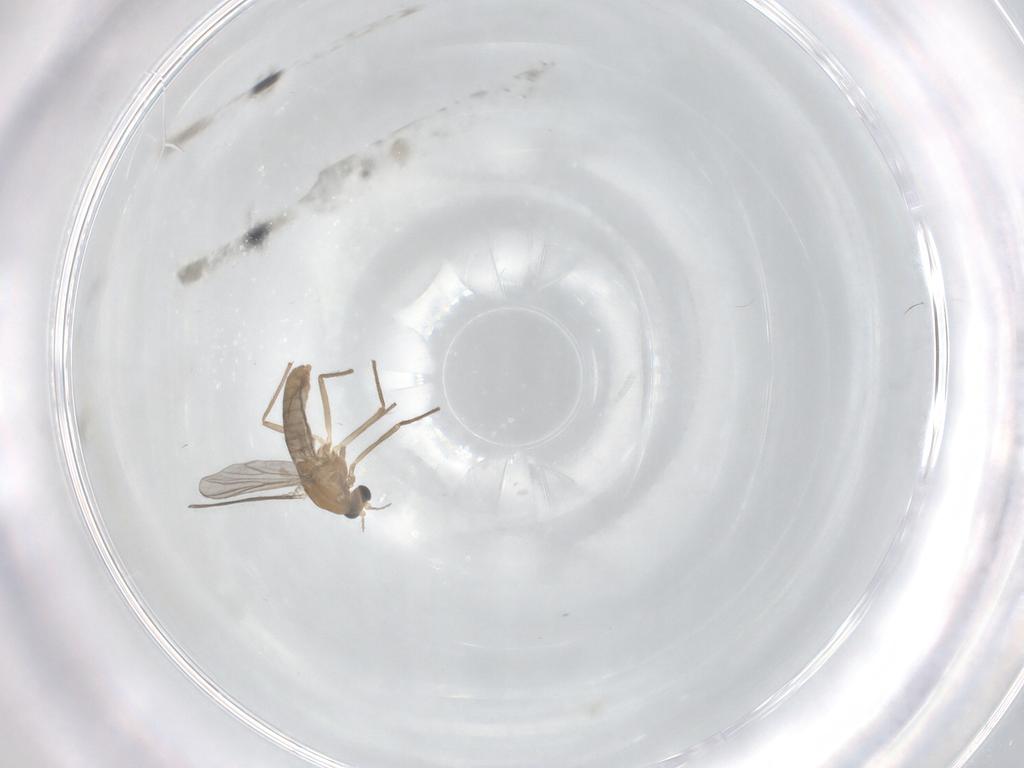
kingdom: Animalia
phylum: Arthropoda
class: Insecta
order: Diptera
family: Chironomidae
